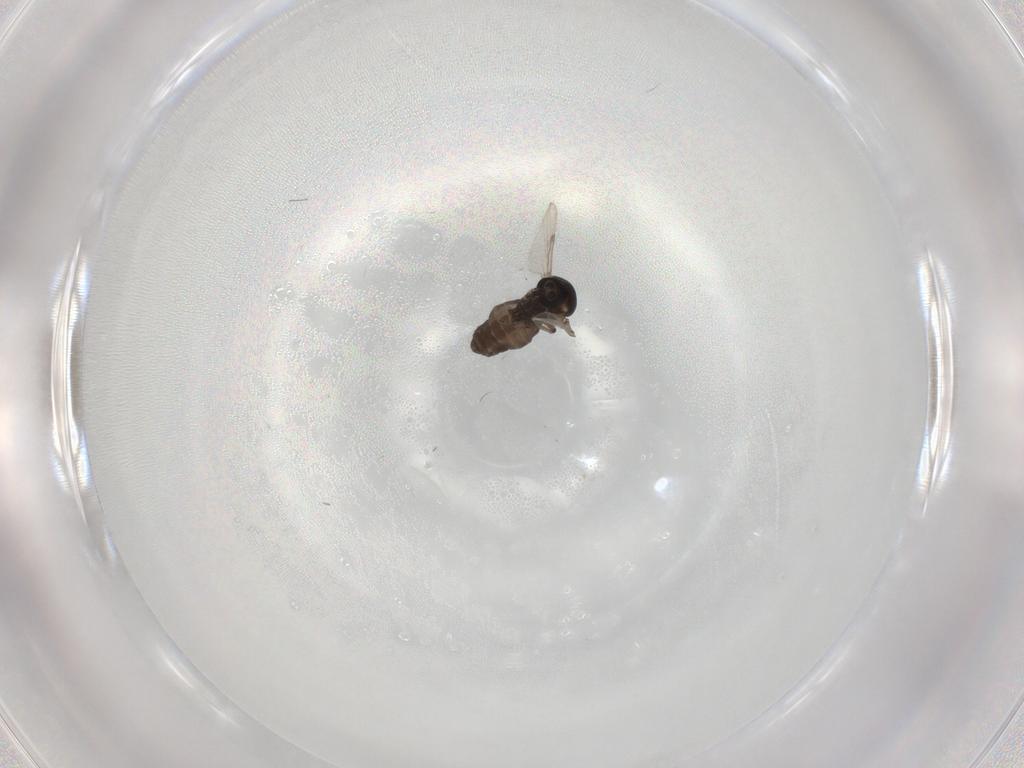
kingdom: Animalia
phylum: Arthropoda
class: Insecta
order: Diptera
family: Ceratopogonidae
